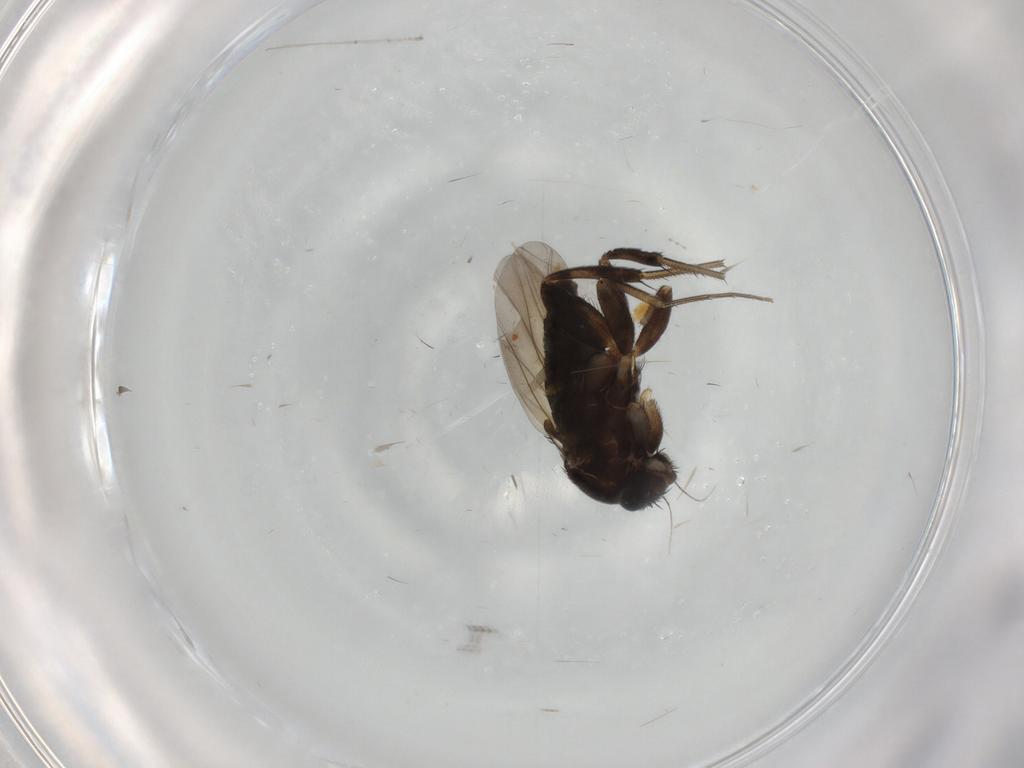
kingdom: Animalia
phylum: Arthropoda
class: Insecta
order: Diptera
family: Phoridae
